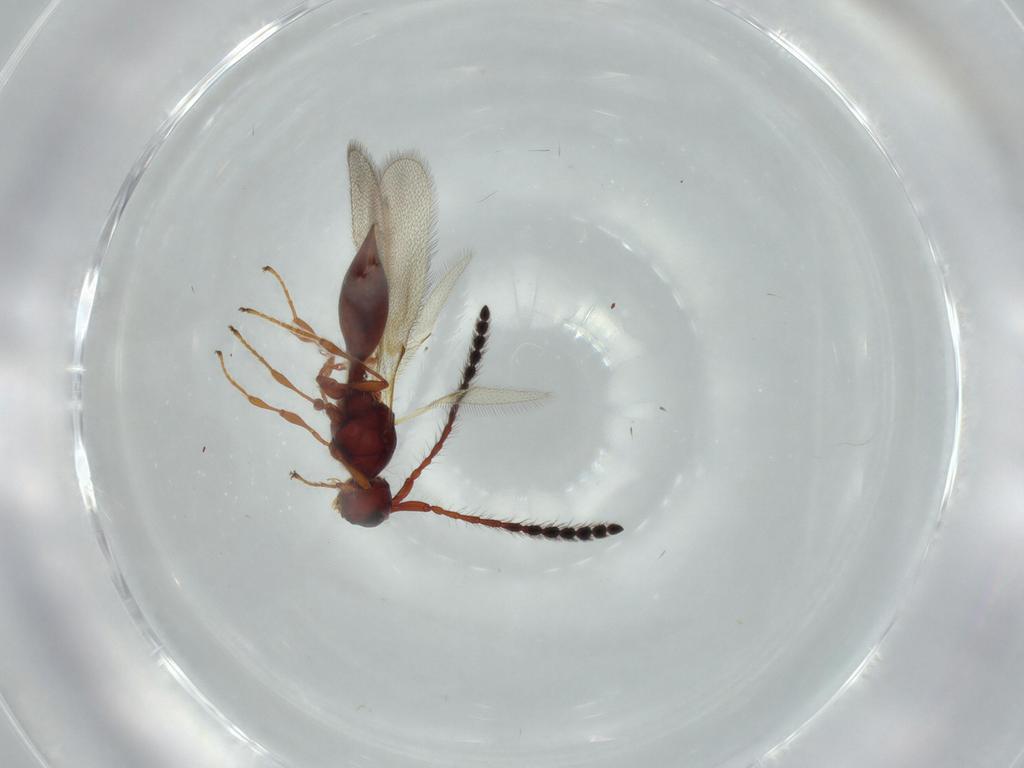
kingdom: Animalia
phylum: Arthropoda
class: Insecta
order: Hymenoptera
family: Diapriidae
